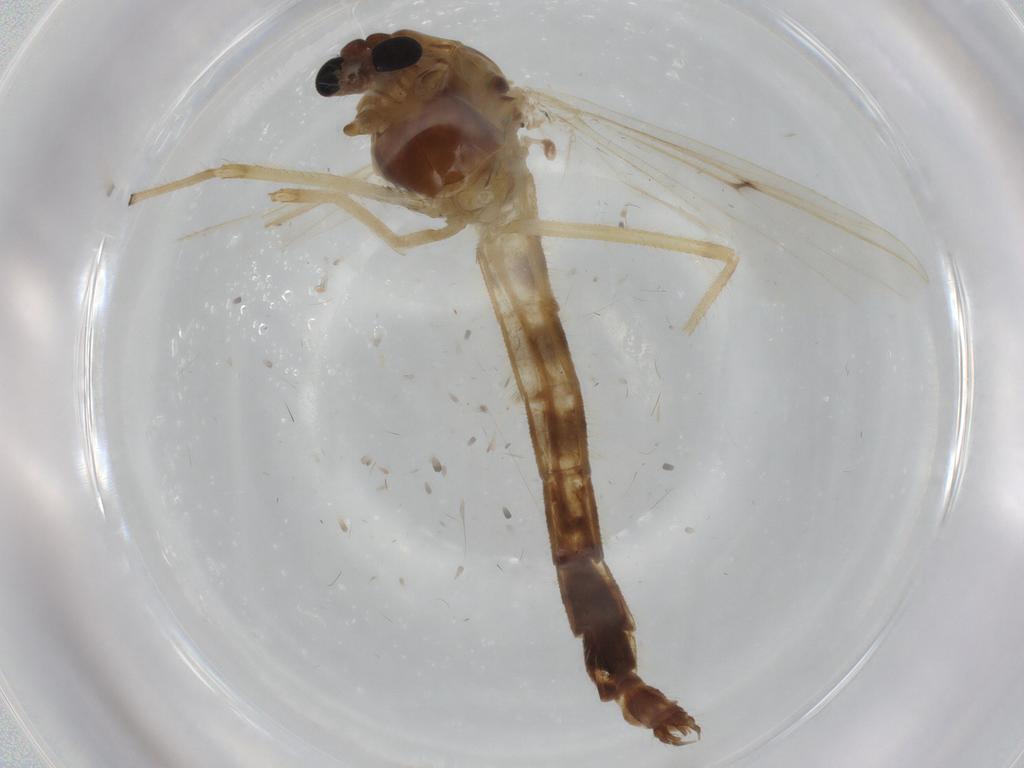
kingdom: Animalia
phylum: Arthropoda
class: Insecta
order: Diptera
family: Chironomidae
